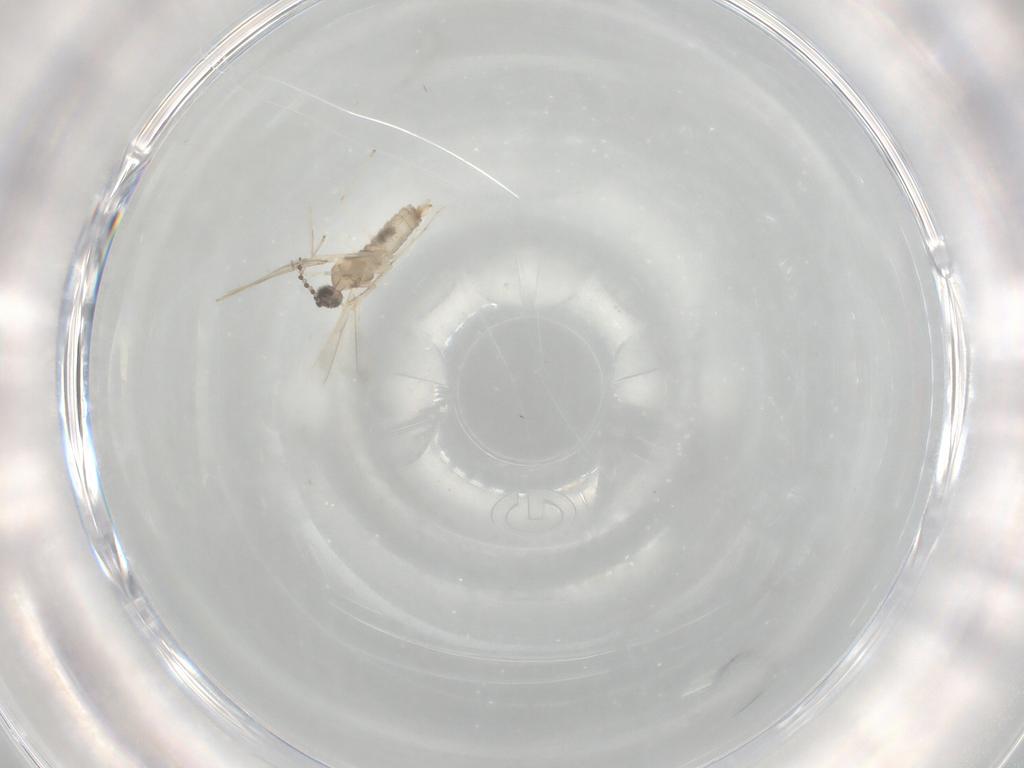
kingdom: Animalia
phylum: Arthropoda
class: Insecta
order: Diptera
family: Cecidomyiidae
